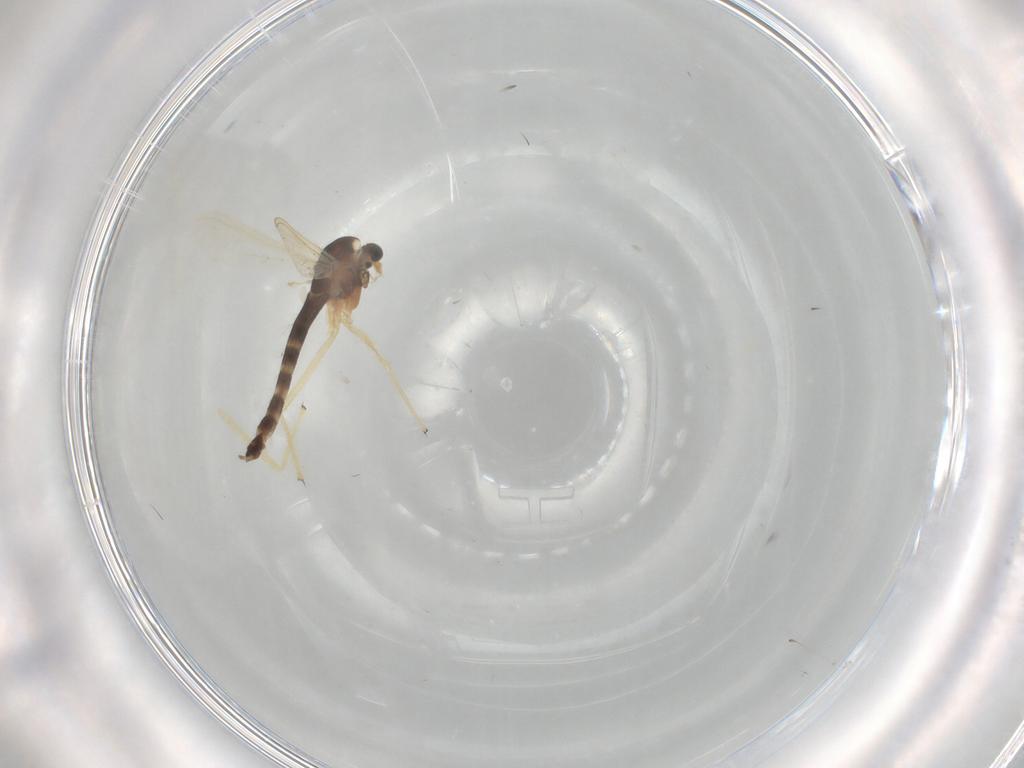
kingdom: Animalia
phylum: Arthropoda
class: Insecta
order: Diptera
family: Chironomidae
